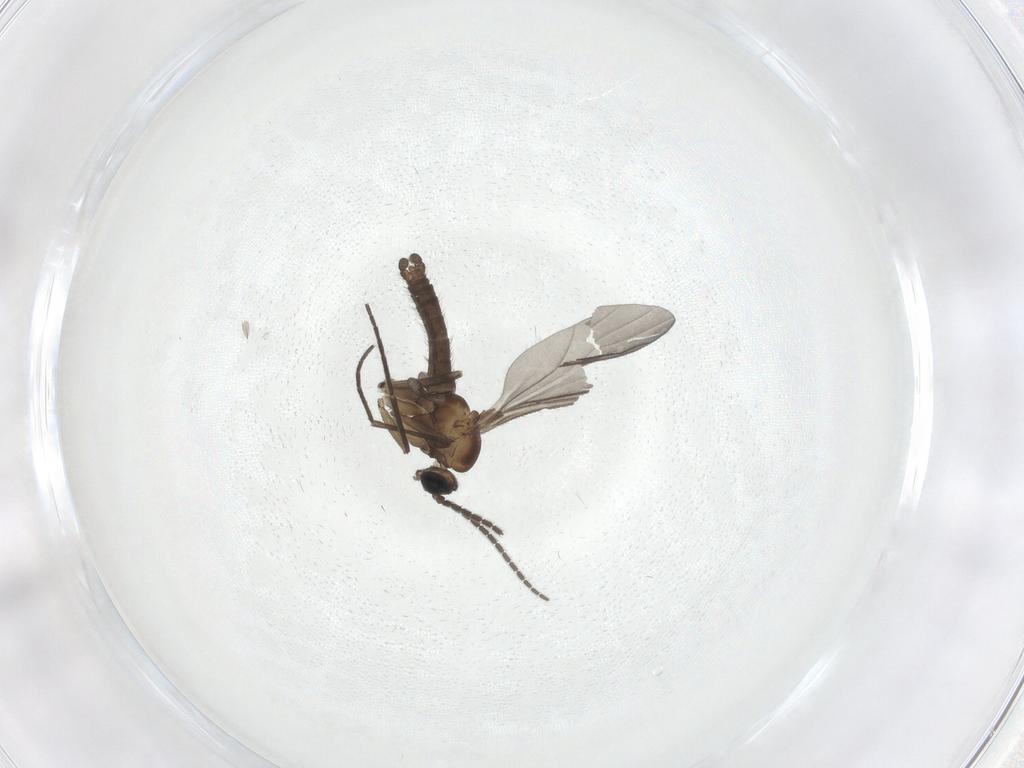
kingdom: Animalia
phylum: Arthropoda
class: Insecta
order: Diptera
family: Sciaridae
